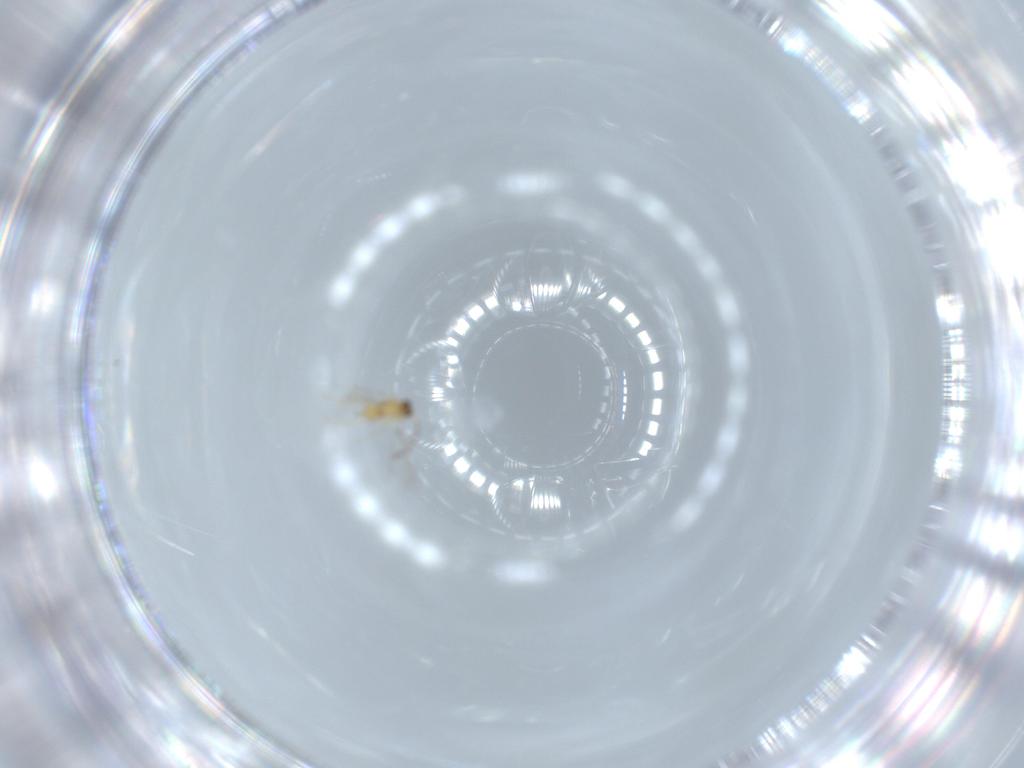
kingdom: Animalia
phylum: Arthropoda
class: Insecta
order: Hymenoptera
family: Mymaridae
